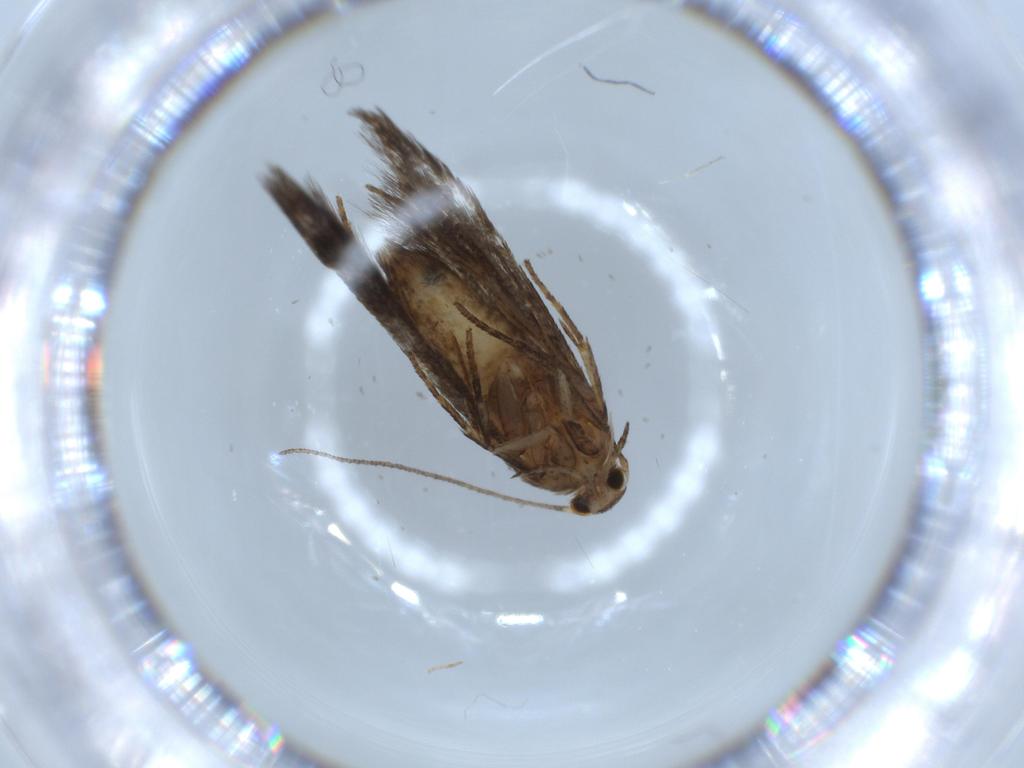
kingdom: Animalia
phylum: Arthropoda
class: Insecta
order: Lepidoptera
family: Cosmopterigidae
